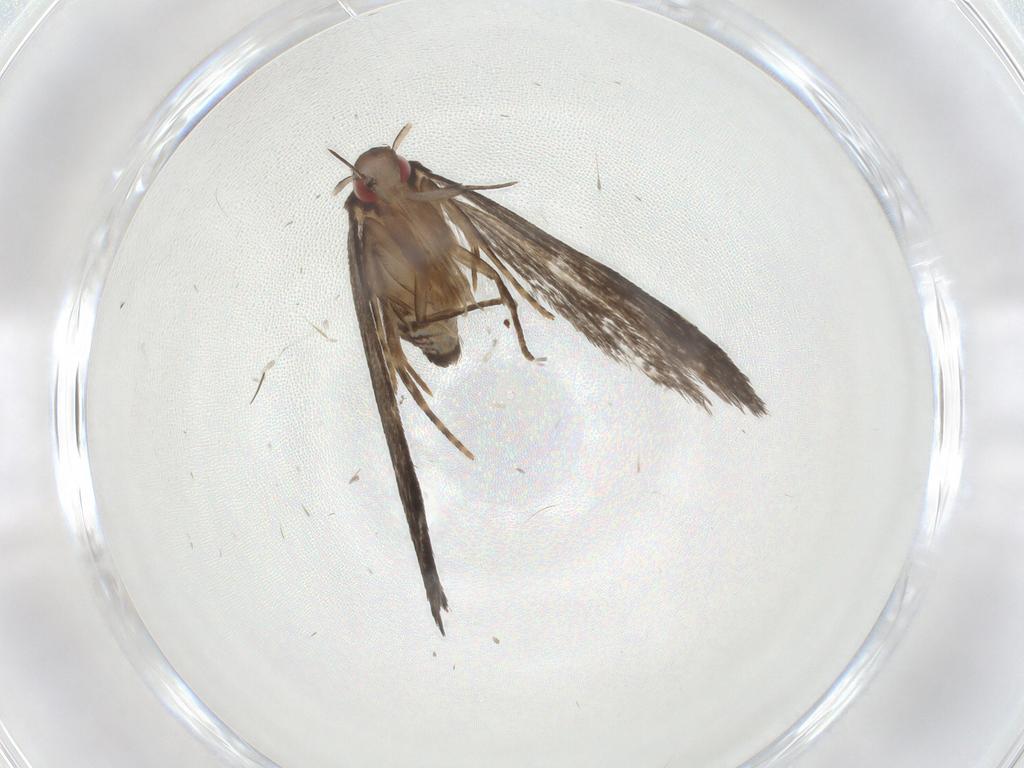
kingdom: Animalia
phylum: Arthropoda
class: Insecta
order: Lepidoptera
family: Gelechiidae
